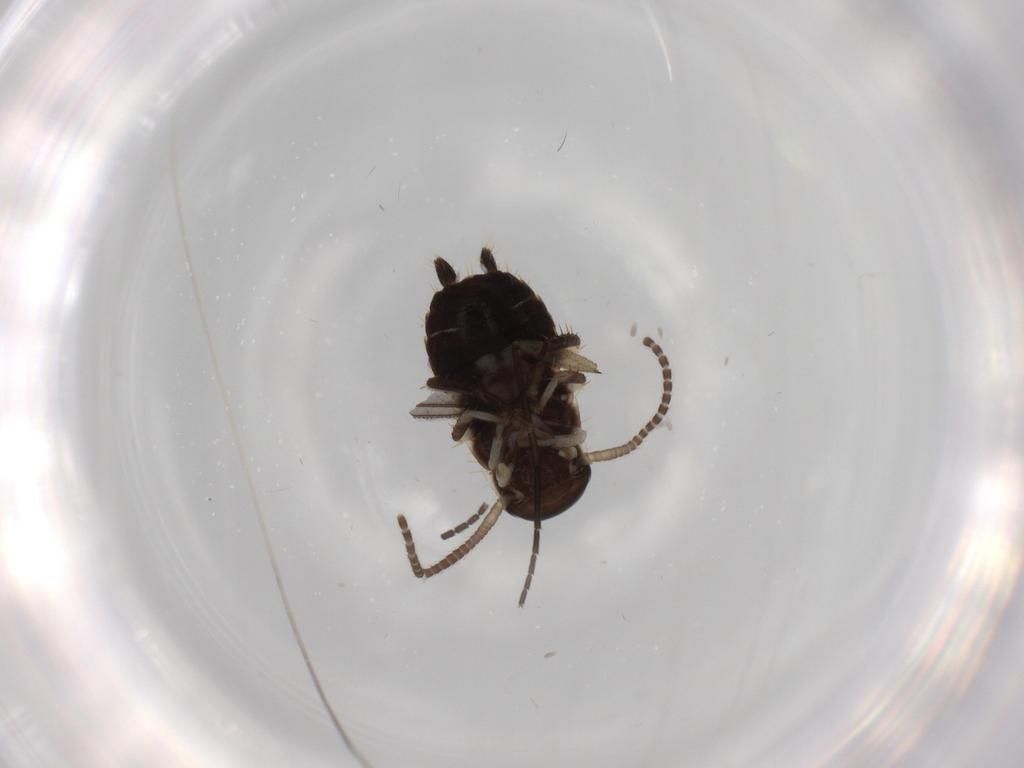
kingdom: Animalia
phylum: Arthropoda
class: Insecta
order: Blattodea
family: Ectobiidae
